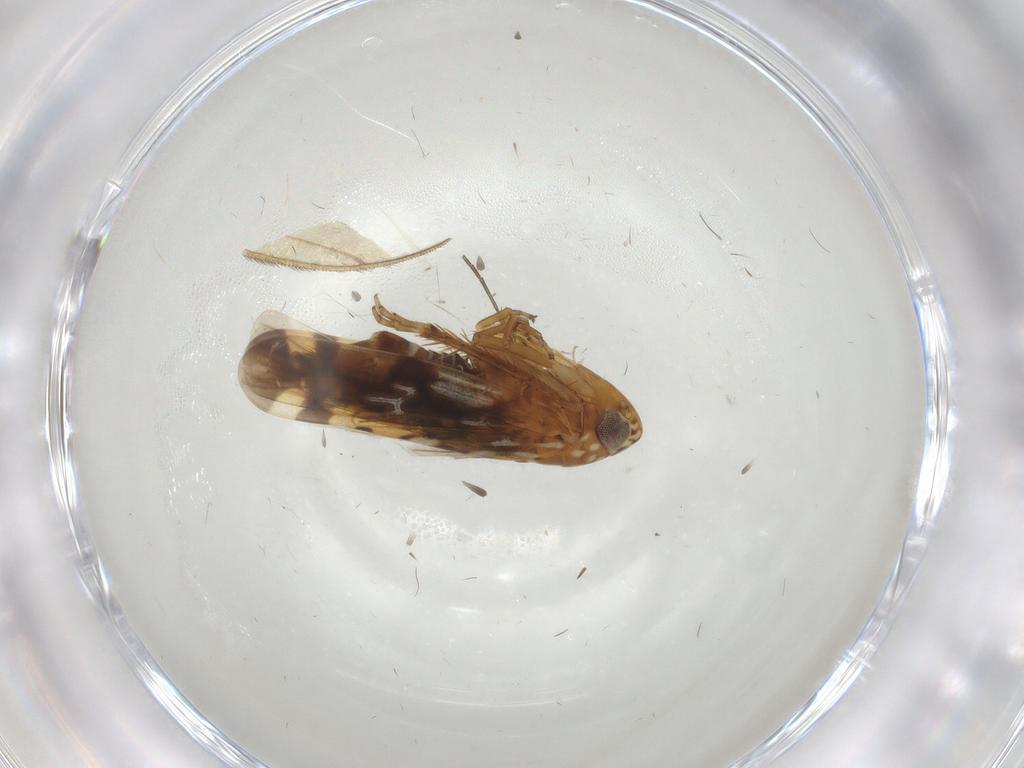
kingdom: Animalia
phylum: Arthropoda
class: Insecta
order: Hemiptera
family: Cicadellidae
